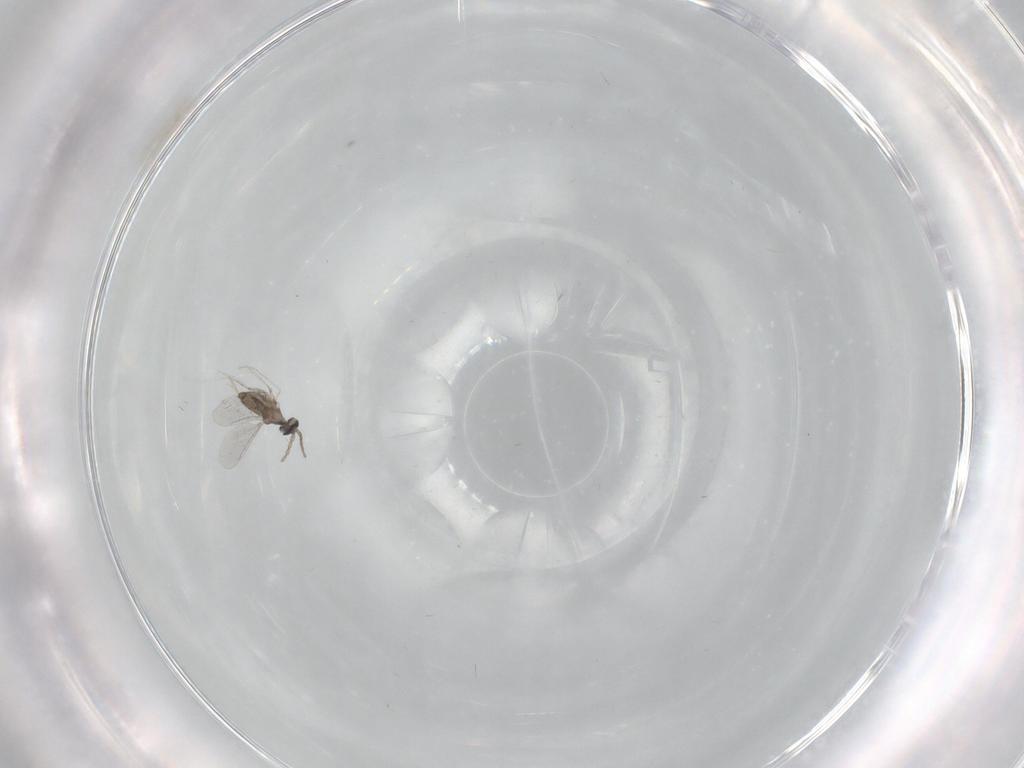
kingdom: Animalia
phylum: Arthropoda
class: Insecta
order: Diptera
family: Cecidomyiidae
